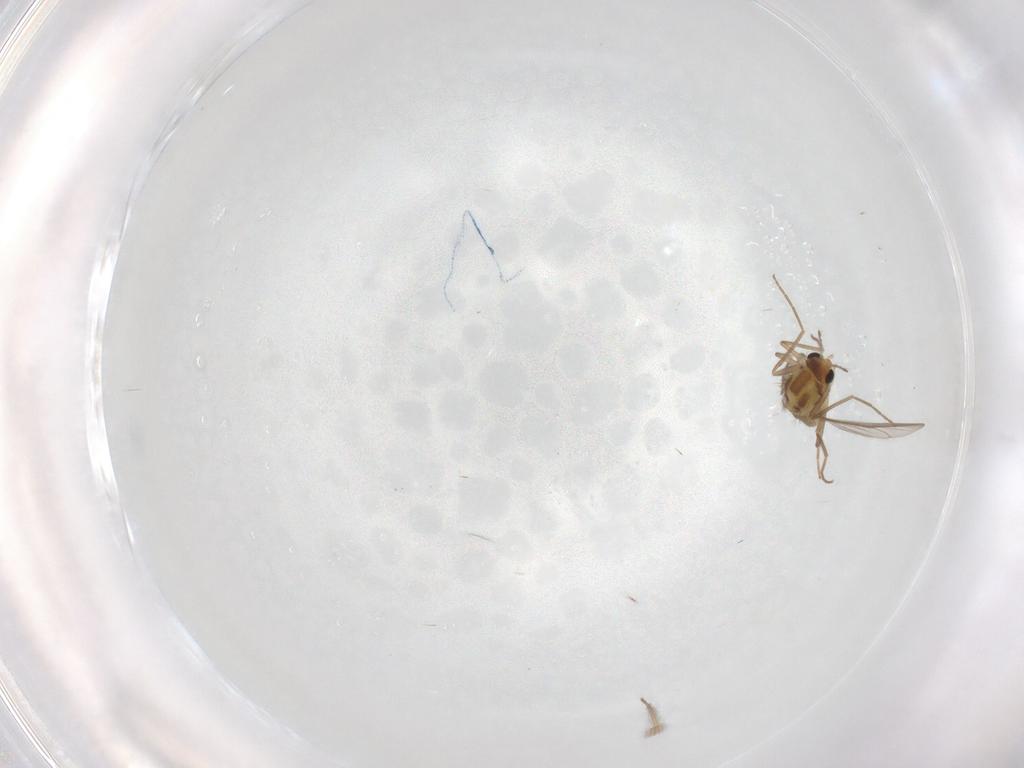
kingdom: Animalia
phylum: Arthropoda
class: Insecta
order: Diptera
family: Chironomidae
